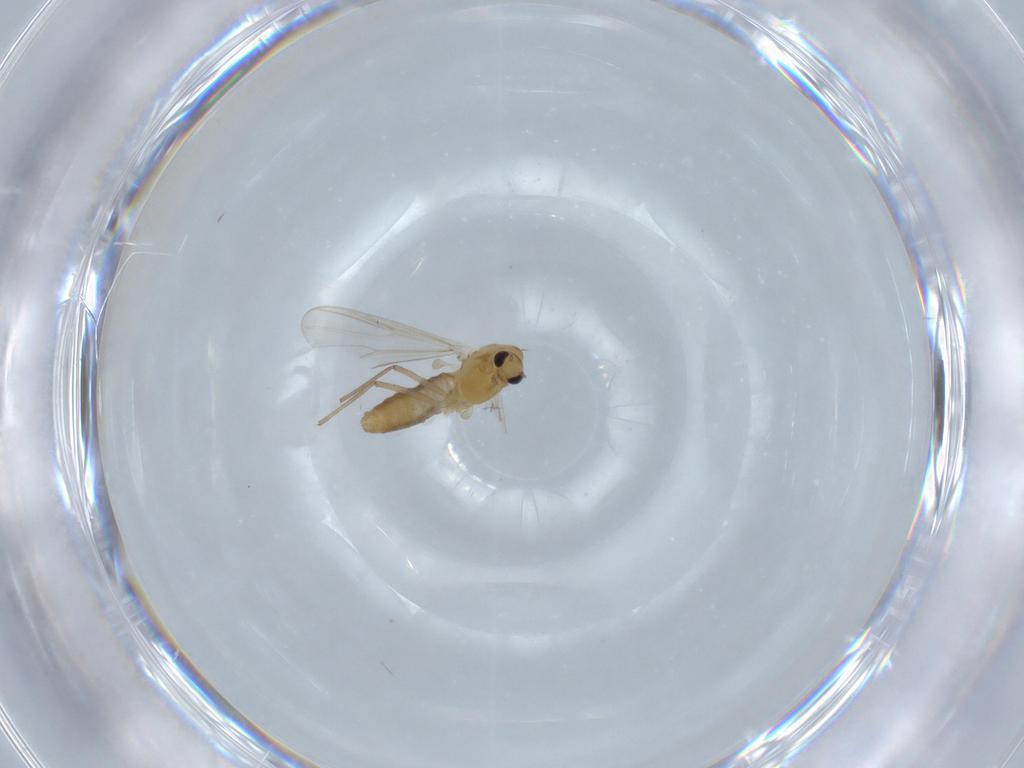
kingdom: Animalia
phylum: Arthropoda
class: Insecta
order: Diptera
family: Chironomidae
